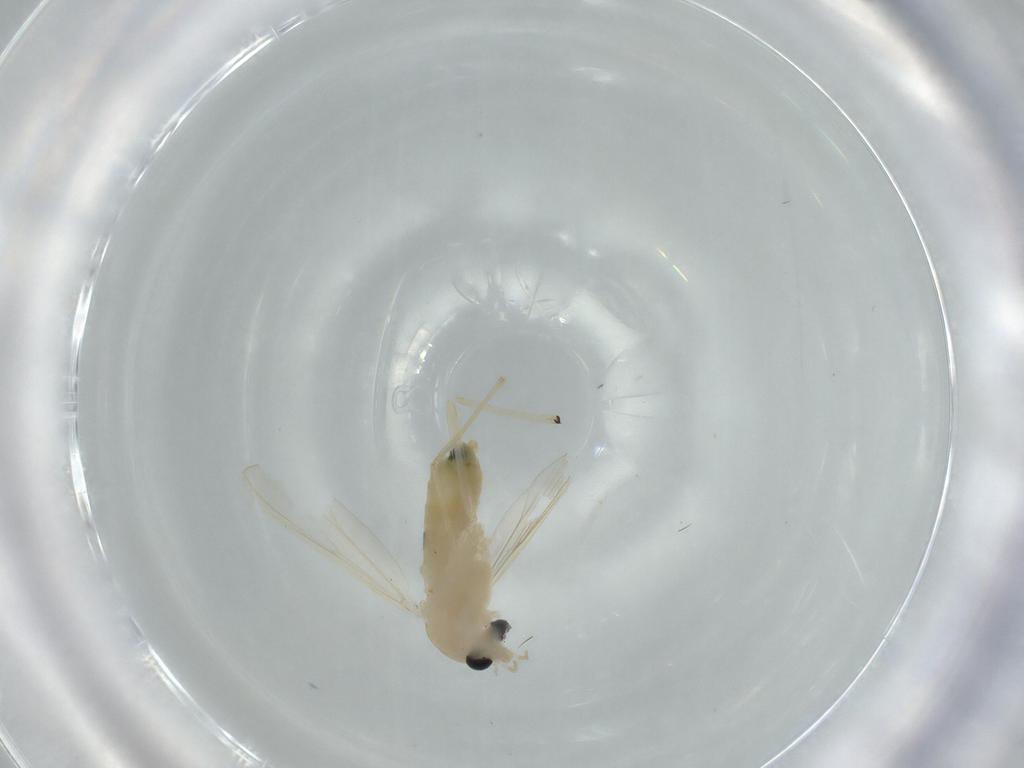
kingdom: Animalia
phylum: Arthropoda
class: Insecta
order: Diptera
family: Chironomidae
